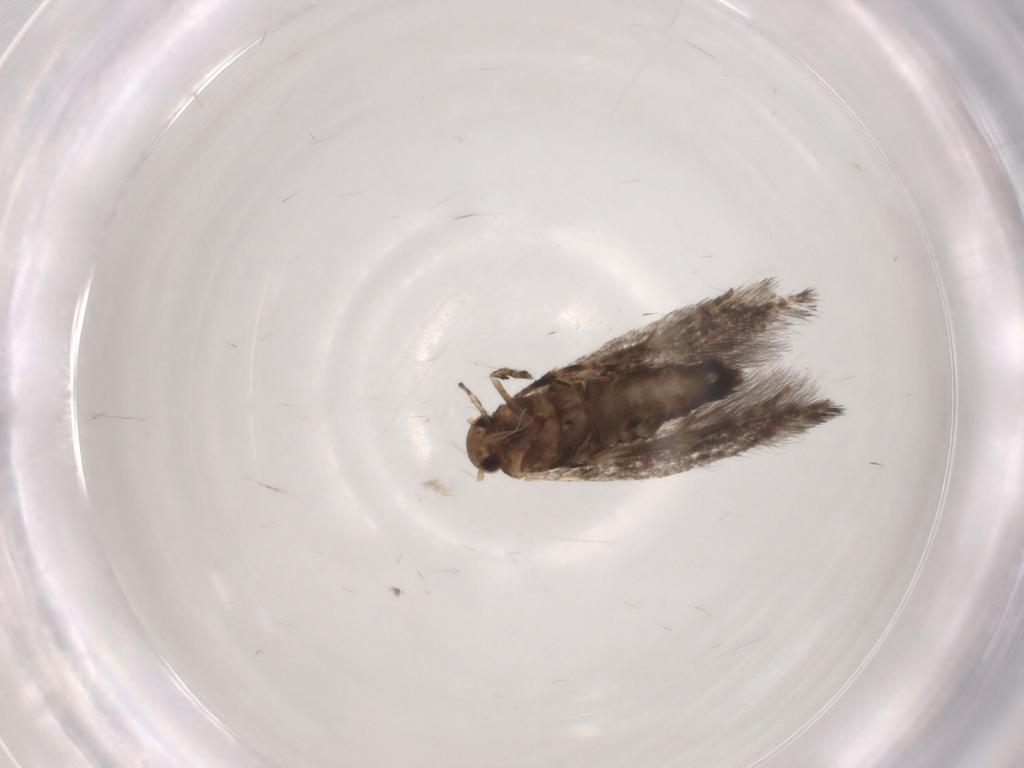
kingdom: Animalia
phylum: Arthropoda
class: Insecta
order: Lepidoptera
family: Elachistidae
